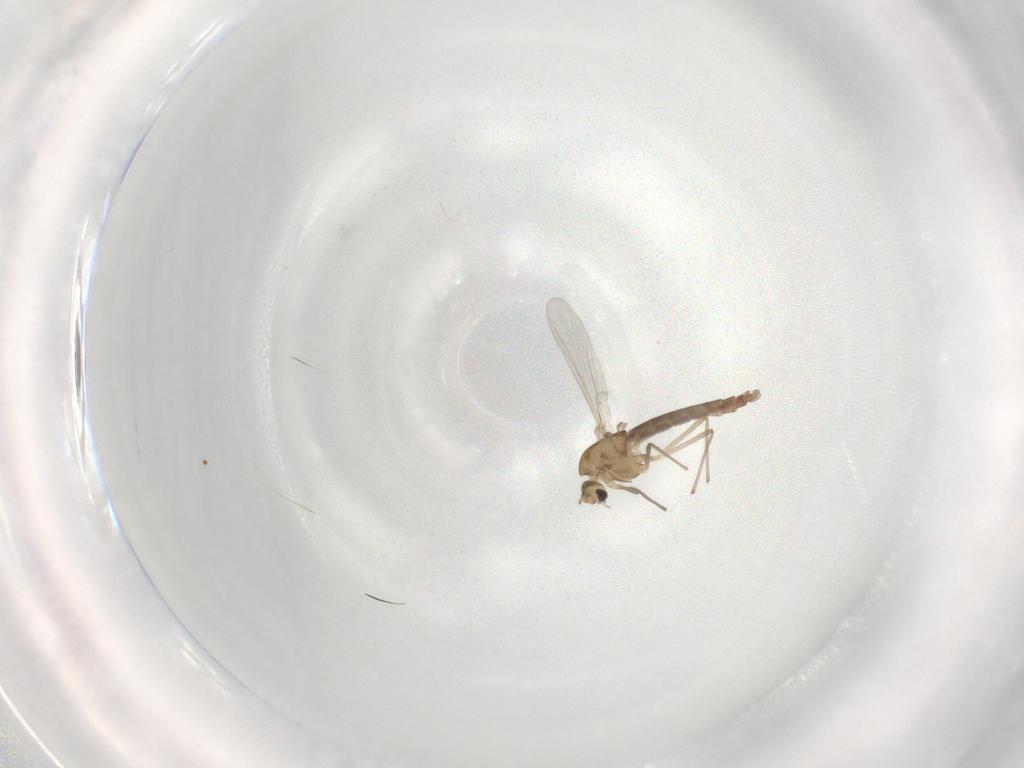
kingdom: Animalia
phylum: Arthropoda
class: Insecta
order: Diptera
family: Chironomidae
